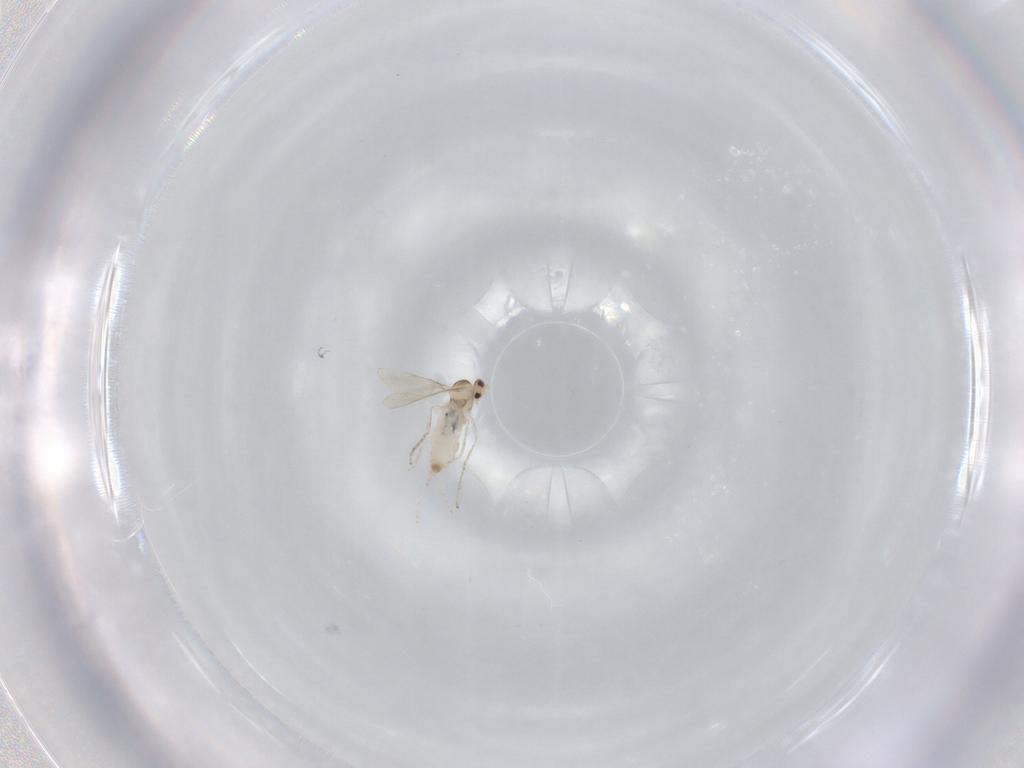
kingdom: Animalia
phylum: Arthropoda
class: Insecta
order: Diptera
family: Cecidomyiidae
